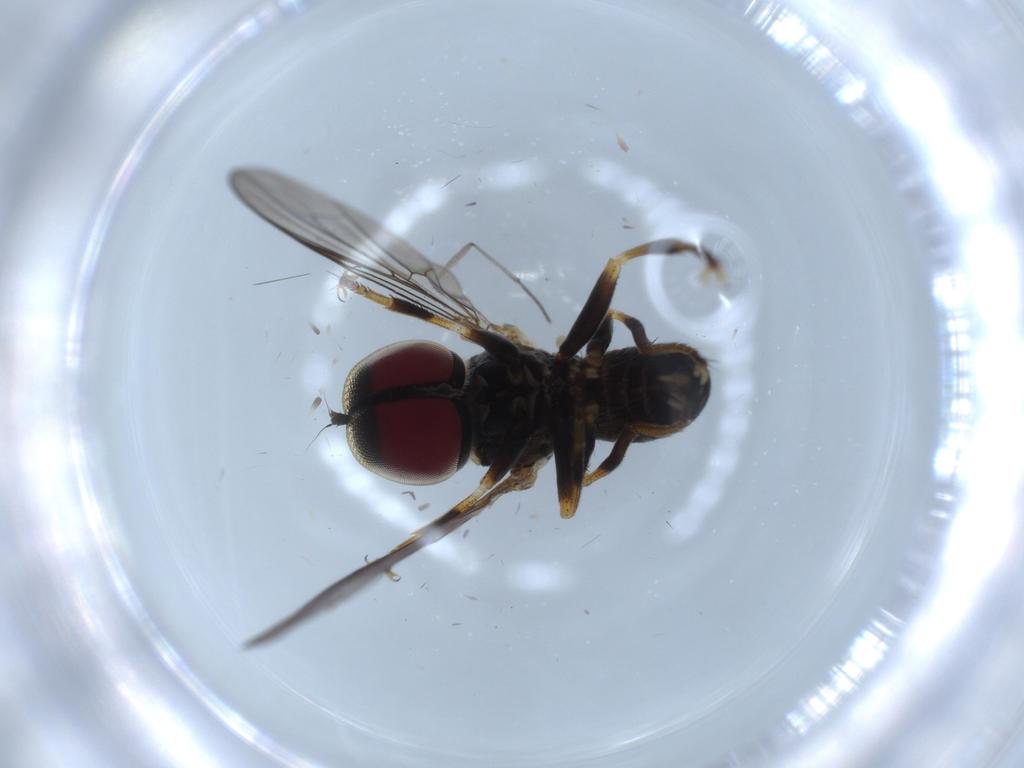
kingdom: Animalia
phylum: Arthropoda
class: Insecta
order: Diptera
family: Pipunculidae
